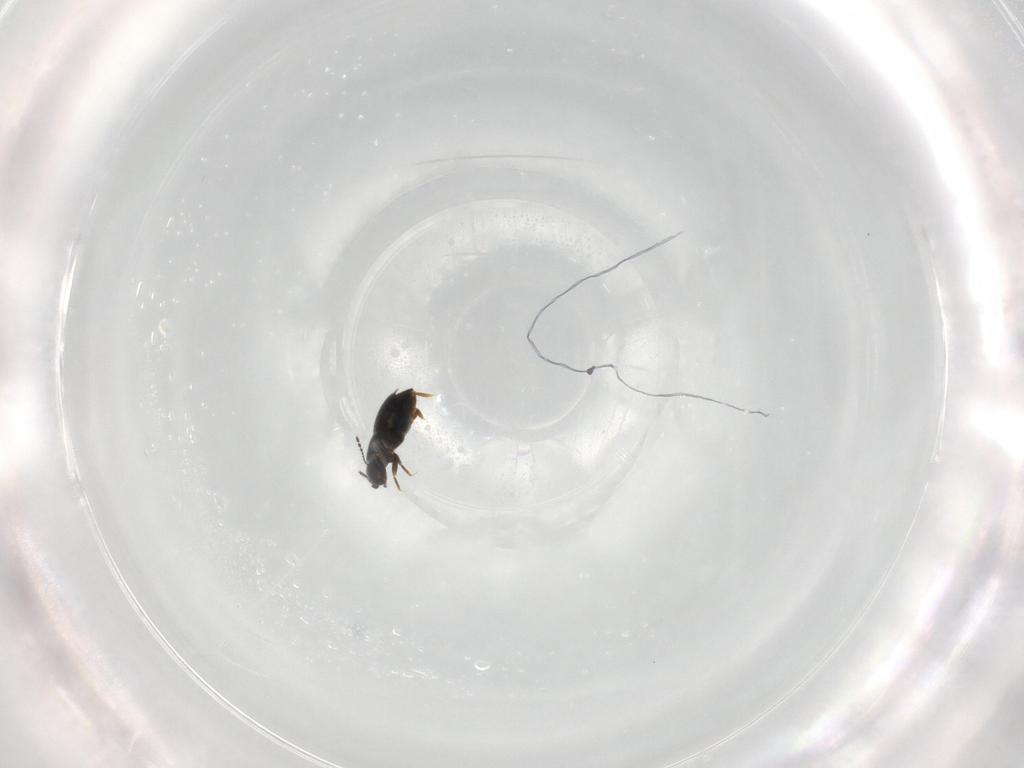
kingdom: Animalia
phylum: Arthropoda
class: Insecta
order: Coleoptera
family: Ptiliidae
